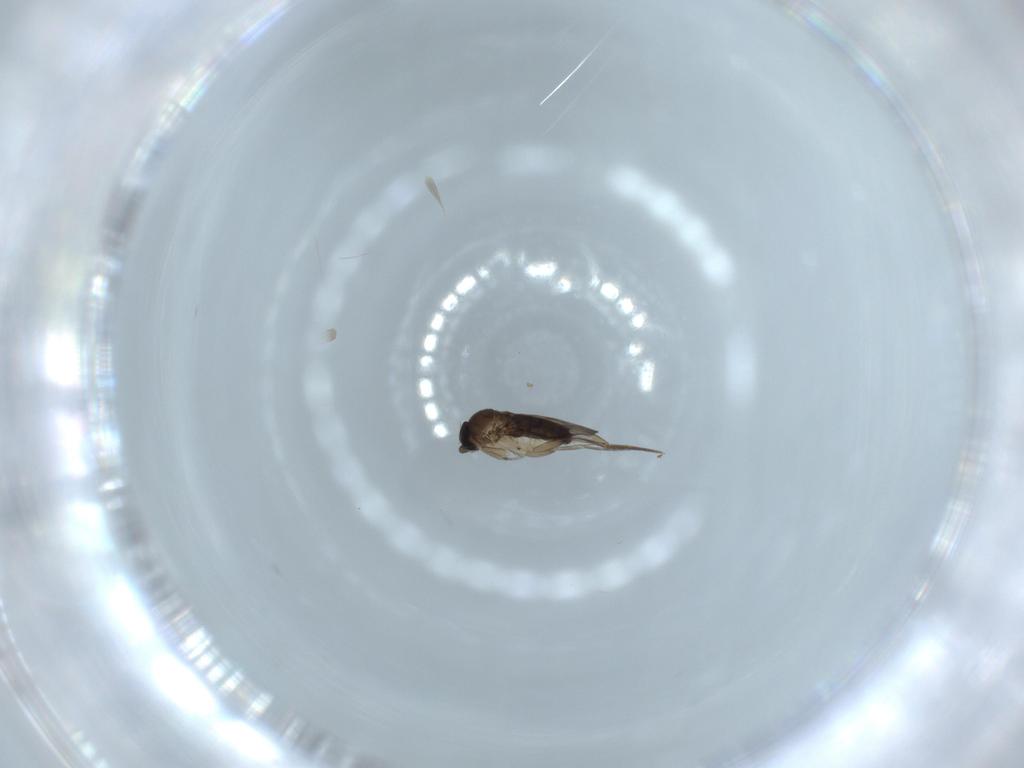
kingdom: Animalia
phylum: Arthropoda
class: Insecta
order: Diptera
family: Phoridae
